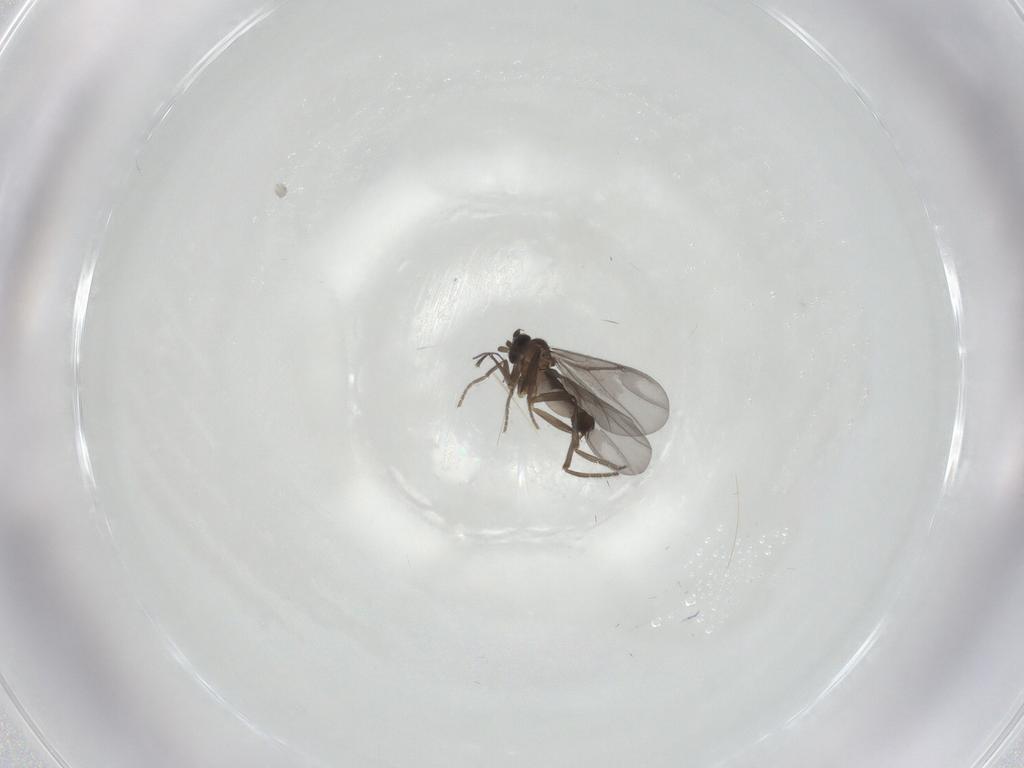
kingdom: Animalia
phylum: Arthropoda
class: Insecta
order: Diptera
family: Phoridae
